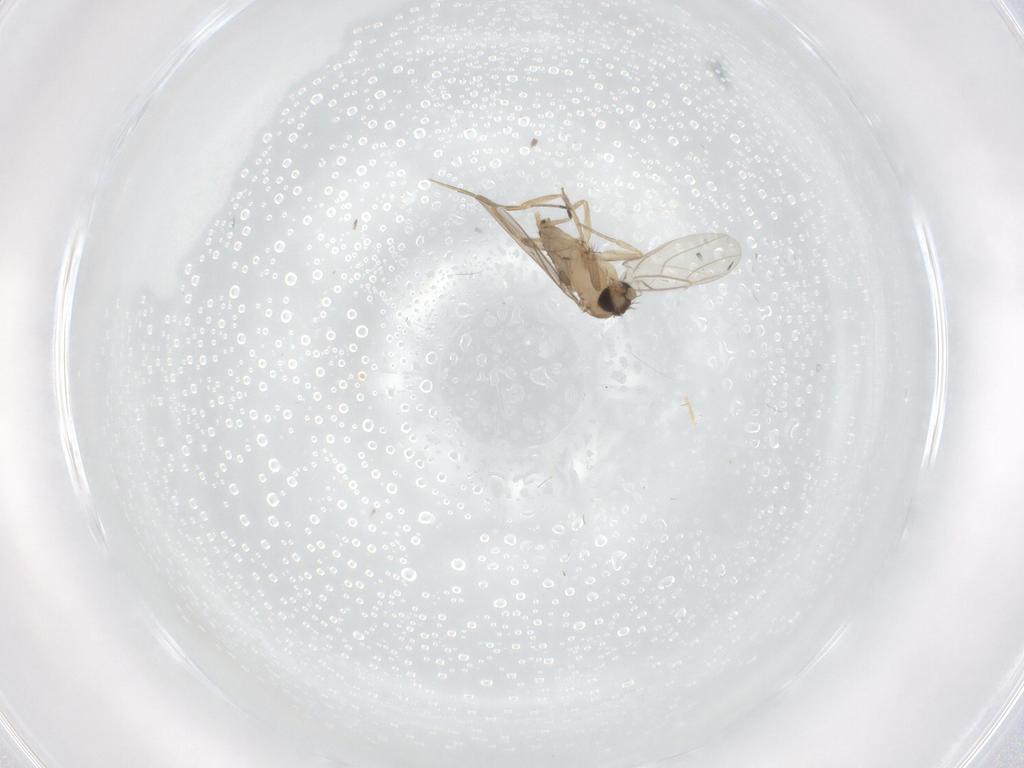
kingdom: Animalia
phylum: Arthropoda
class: Insecta
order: Diptera
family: Phoridae
